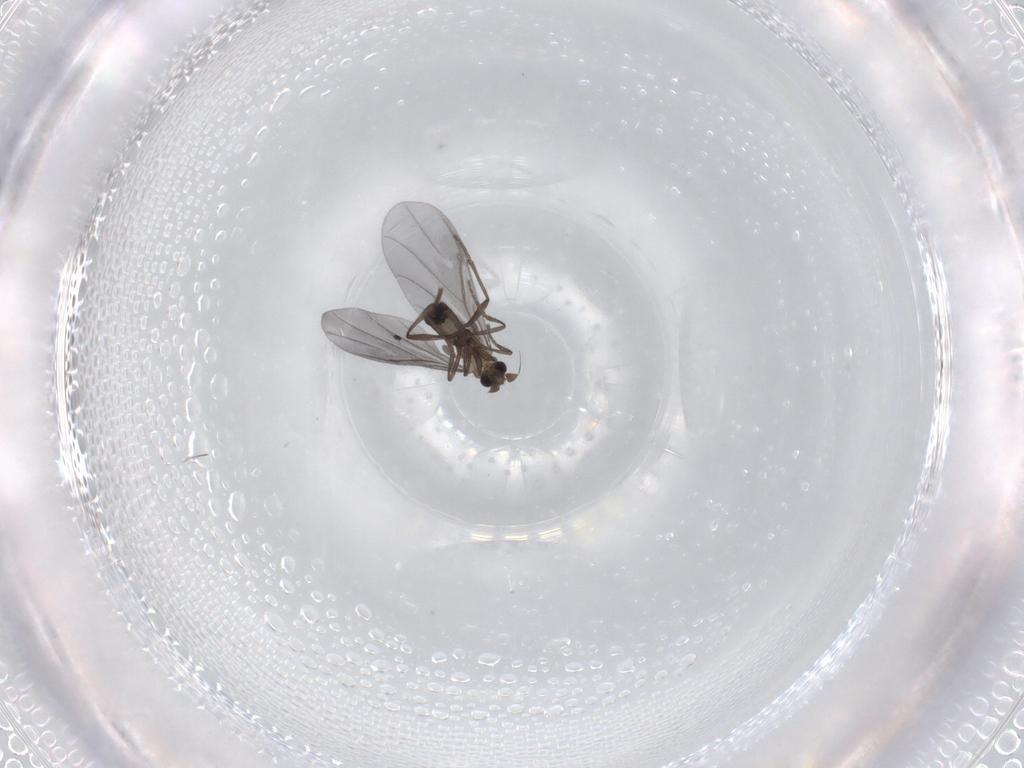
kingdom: Animalia
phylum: Arthropoda
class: Insecta
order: Diptera
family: Phoridae
